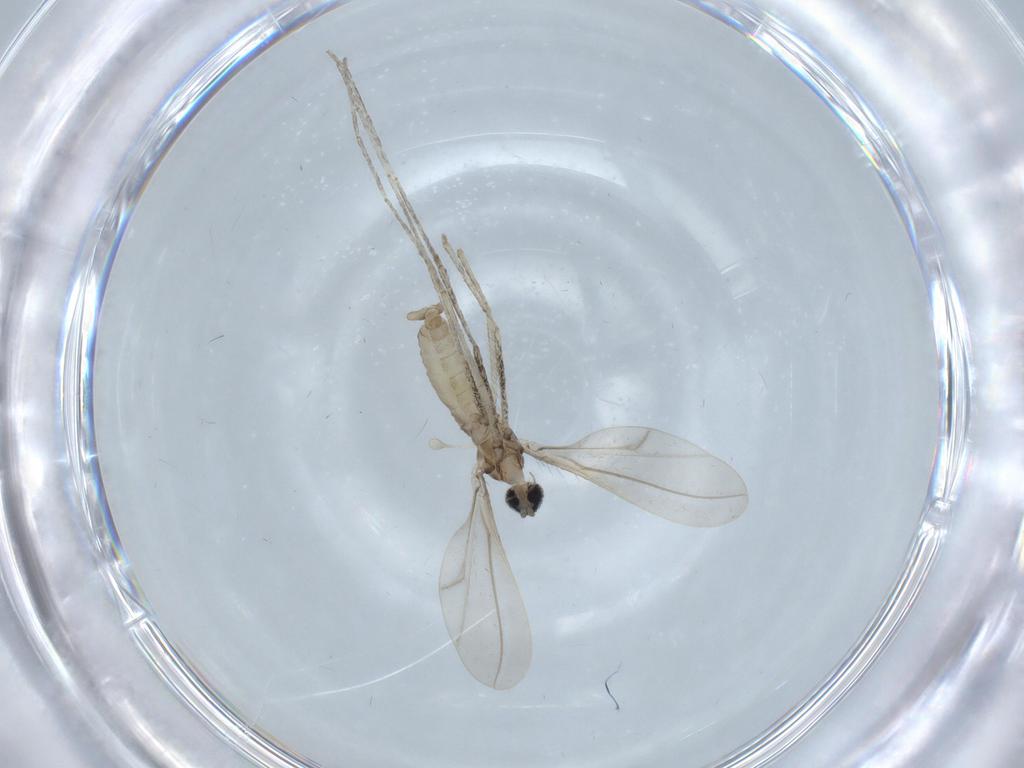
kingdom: Animalia
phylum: Arthropoda
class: Insecta
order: Diptera
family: Cecidomyiidae
